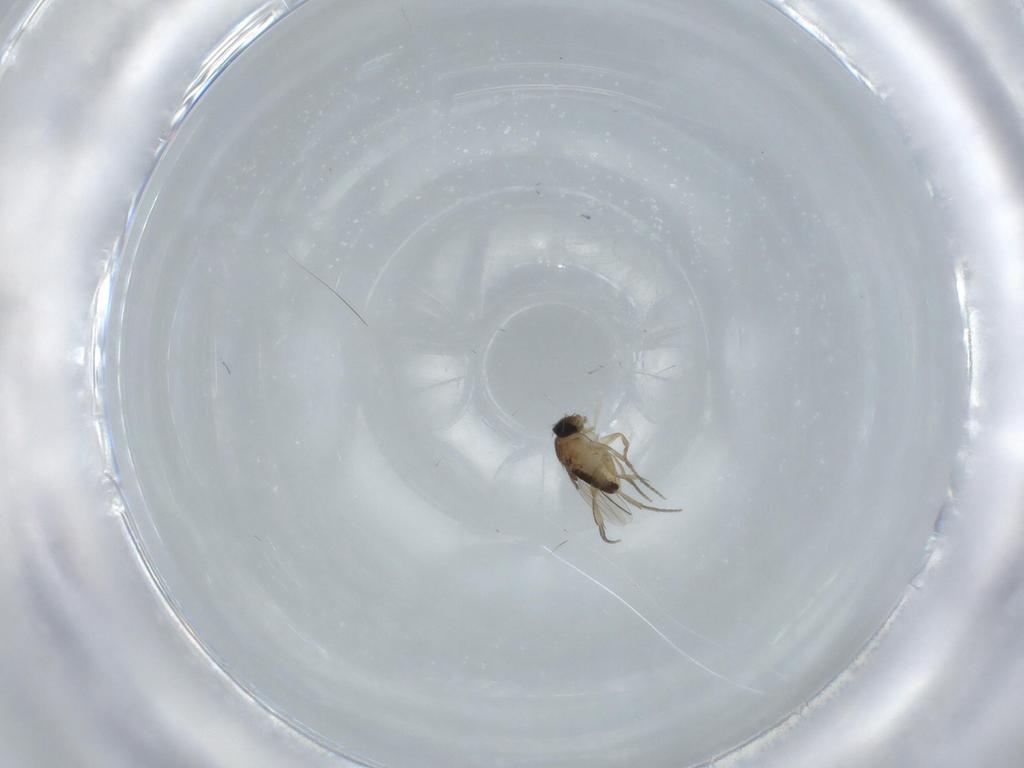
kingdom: Animalia
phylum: Arthropoda
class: Insecta
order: Diptera
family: Phoridae
